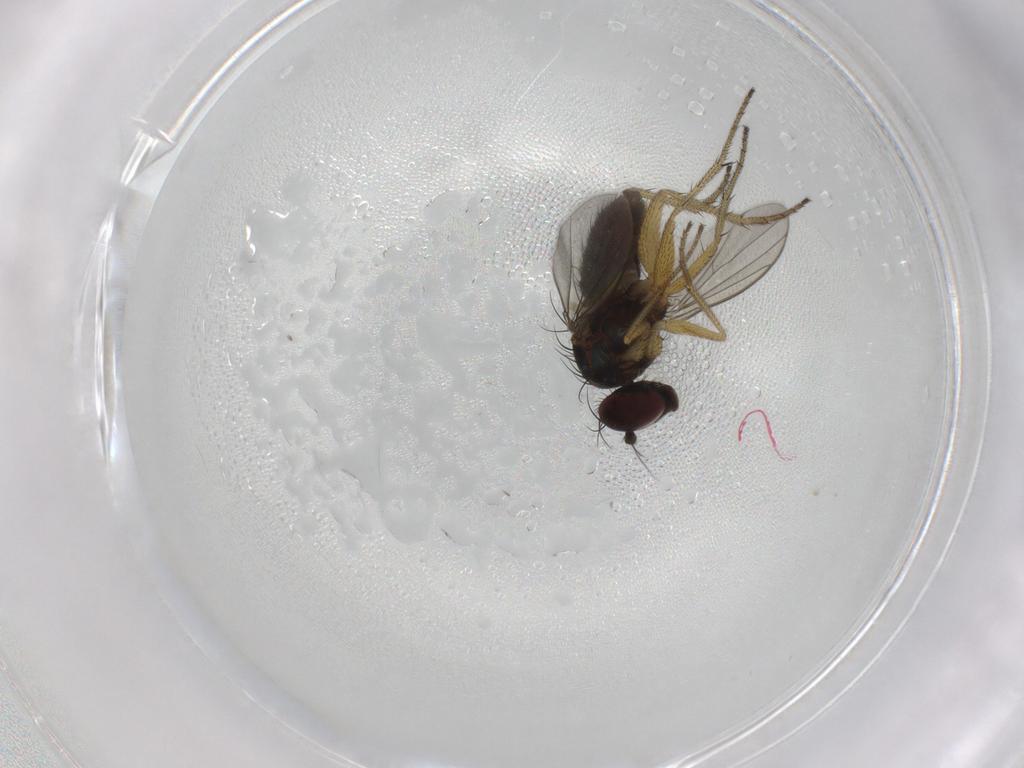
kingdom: Animalia
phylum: Arthropoda
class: Insecta
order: Diptera
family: Dolichopodidae
